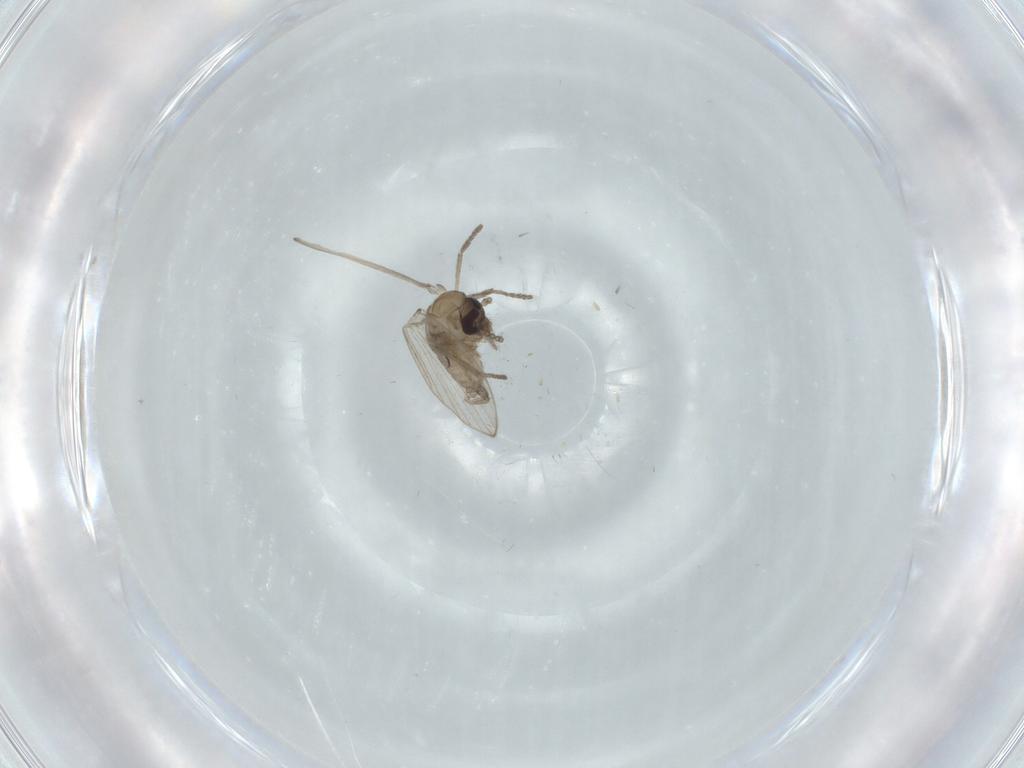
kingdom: Animalia
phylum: Arthropoda
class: Insecta
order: Diptera
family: Psychodidae
